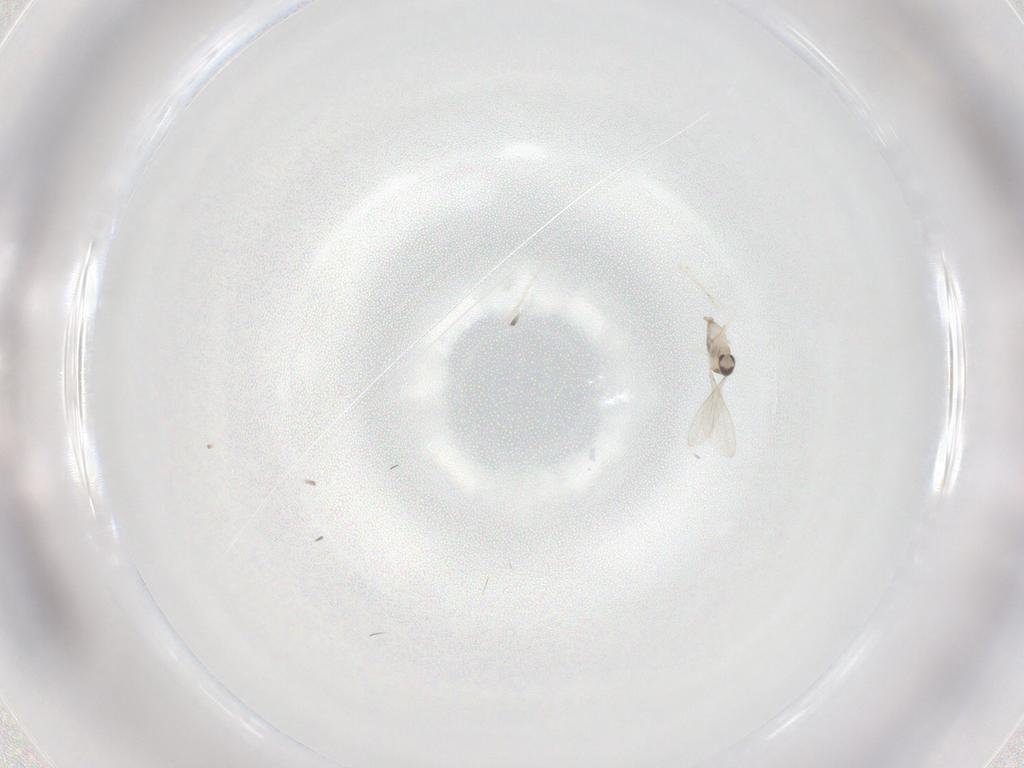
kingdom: Animalia
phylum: Arthropoda
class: Insecta
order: Diptera
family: Cecidomyiidae
